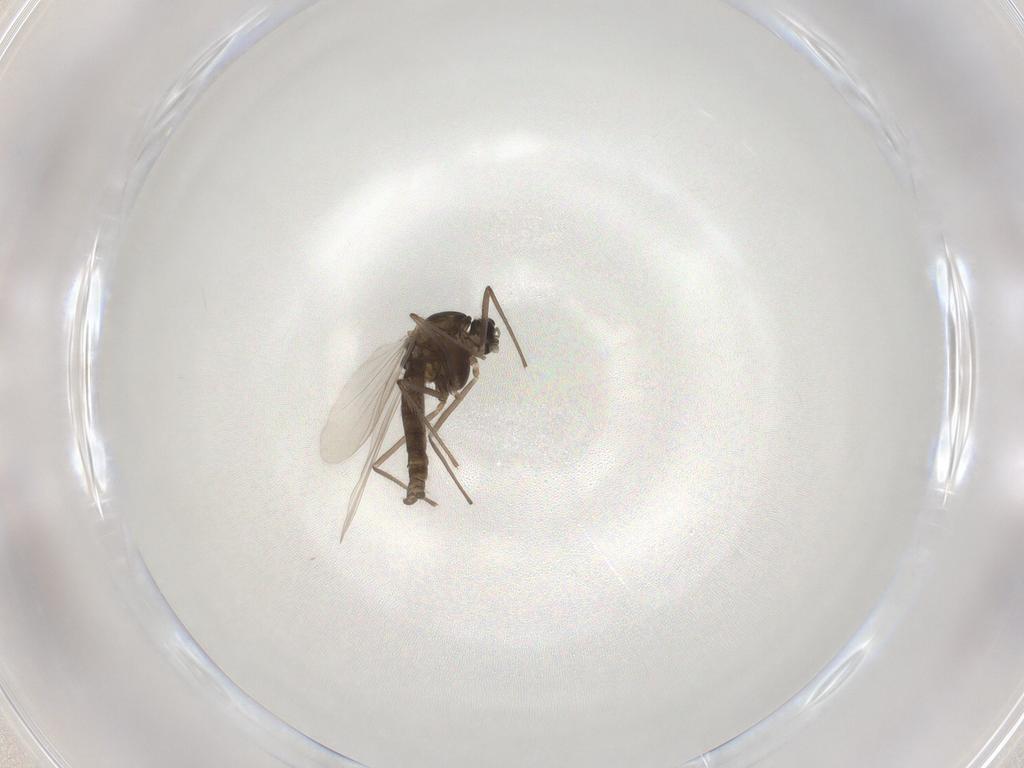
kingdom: Animalia
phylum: Arthropoda
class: Insecta
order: Diptera
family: Chironomidae
